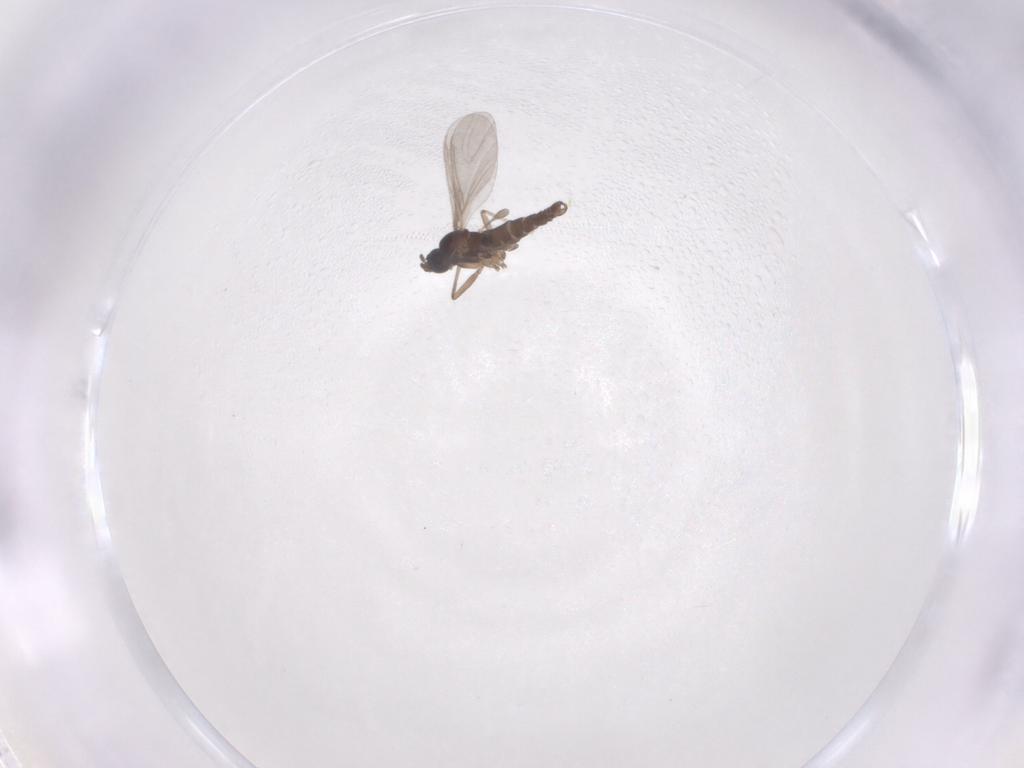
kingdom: Animalia
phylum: Arthropoda
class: Insecta
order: Diptera
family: Sciaridae
